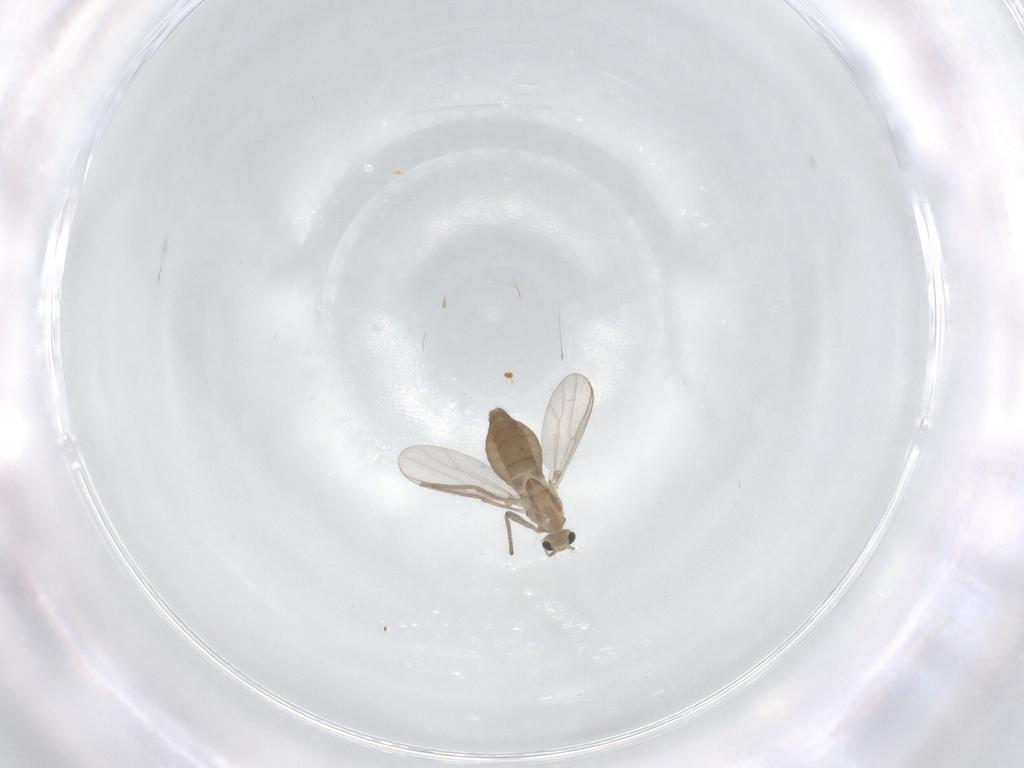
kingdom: Animalia
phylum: Arthropoda
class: Insecta
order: Diptera
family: Chironomidae
